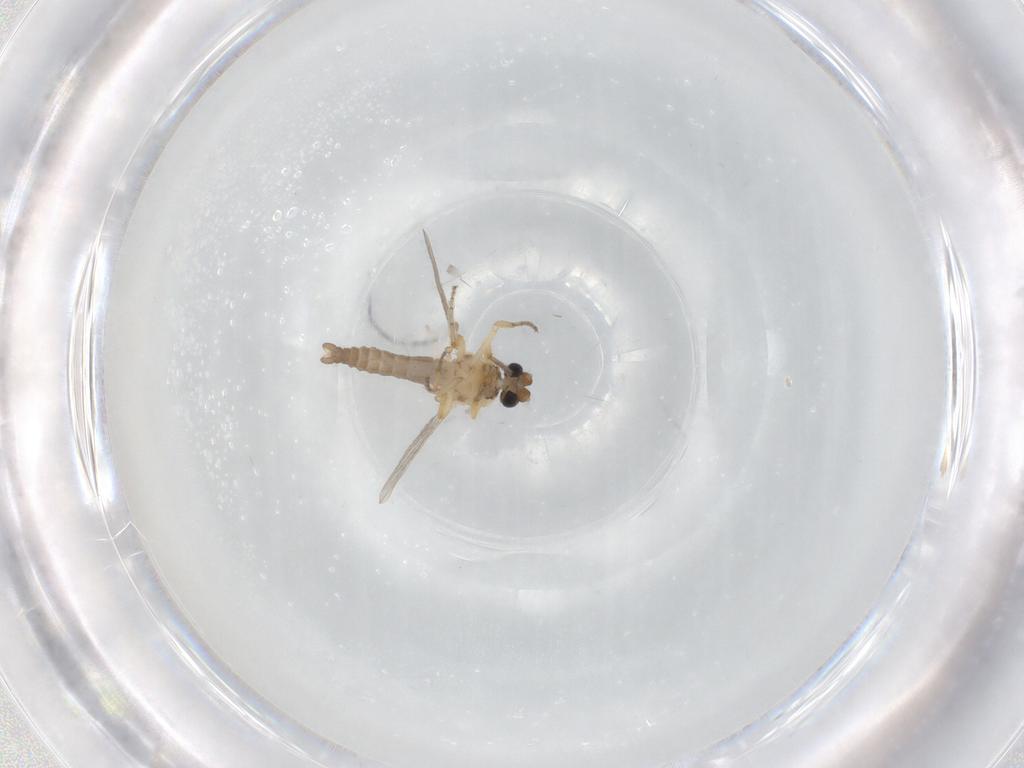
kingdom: Animalia
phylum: Arthropoda
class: Insecta
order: Diptera
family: Ceratopogonidae
